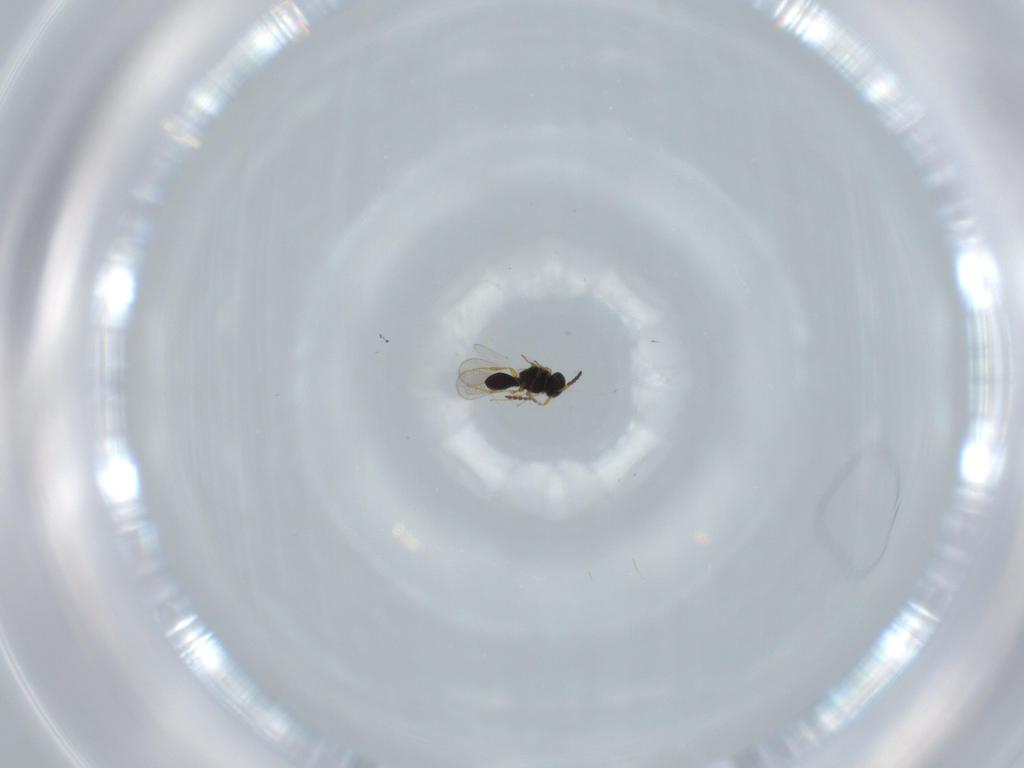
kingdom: Animalia
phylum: Arthropoda
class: Insecta
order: Hymenoptera
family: Platygastridae
